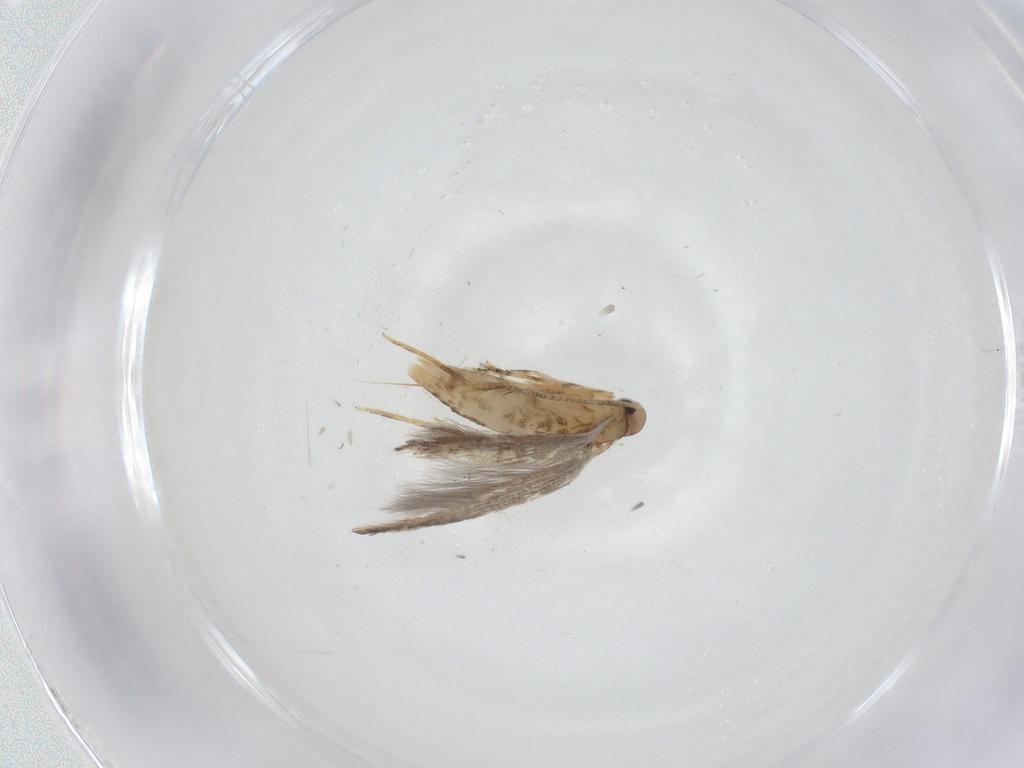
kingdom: Animalia
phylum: Arthropoda
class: Insecta
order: Lepidoptera
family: Erebidae
